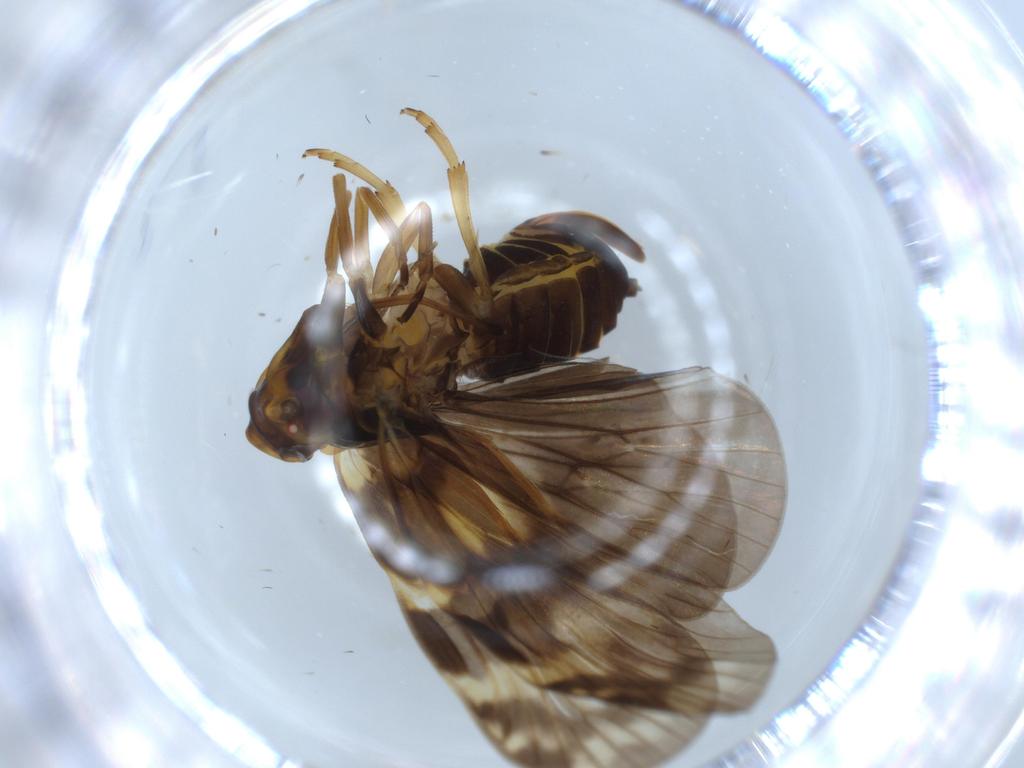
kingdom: Animalia
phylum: Arthropoda
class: Insecta
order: Hemiptera
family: Cixiidae
